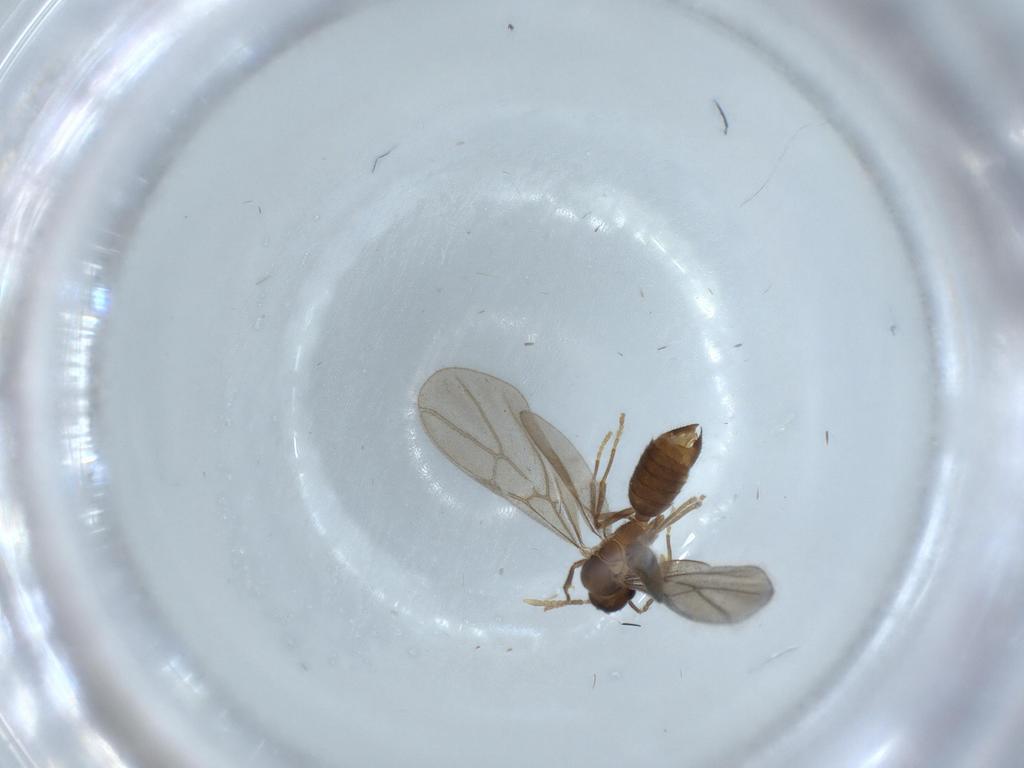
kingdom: Animalia
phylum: Arthropoda
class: Insecta
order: Hymenoptera
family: Formicidae
